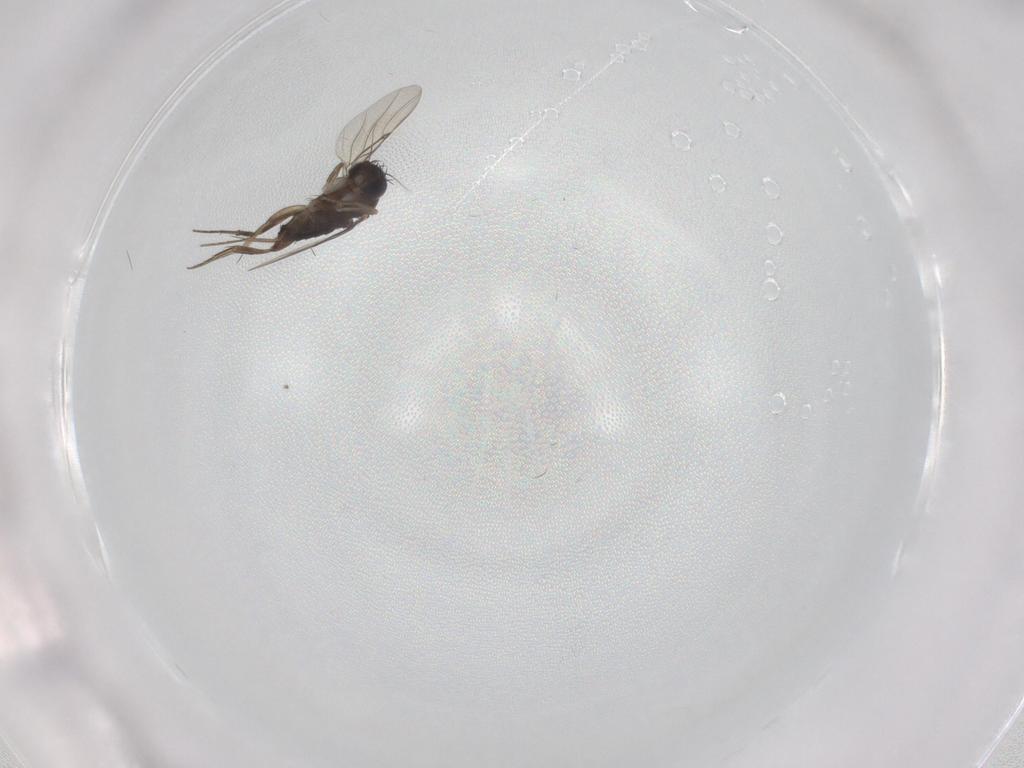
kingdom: Animalia
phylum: Arthropoda
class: Insecta
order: Diptera
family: Phoridae
